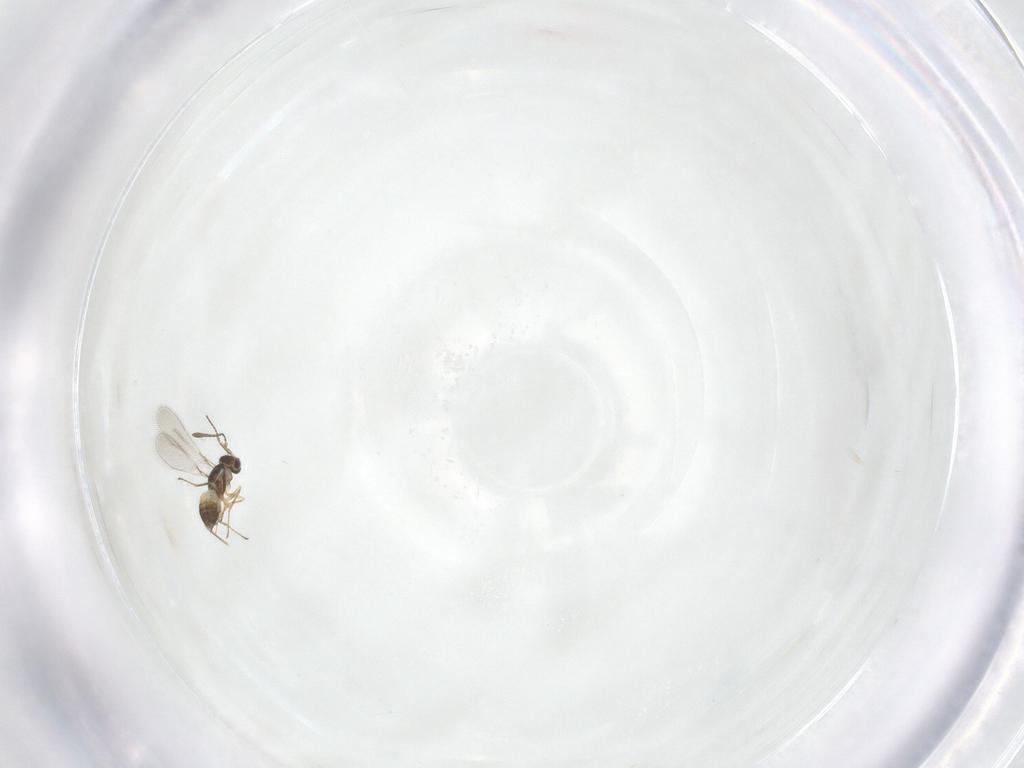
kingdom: Animalia
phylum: Arthropoda
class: Insecta
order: Hymenoptera
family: Mymaridae
